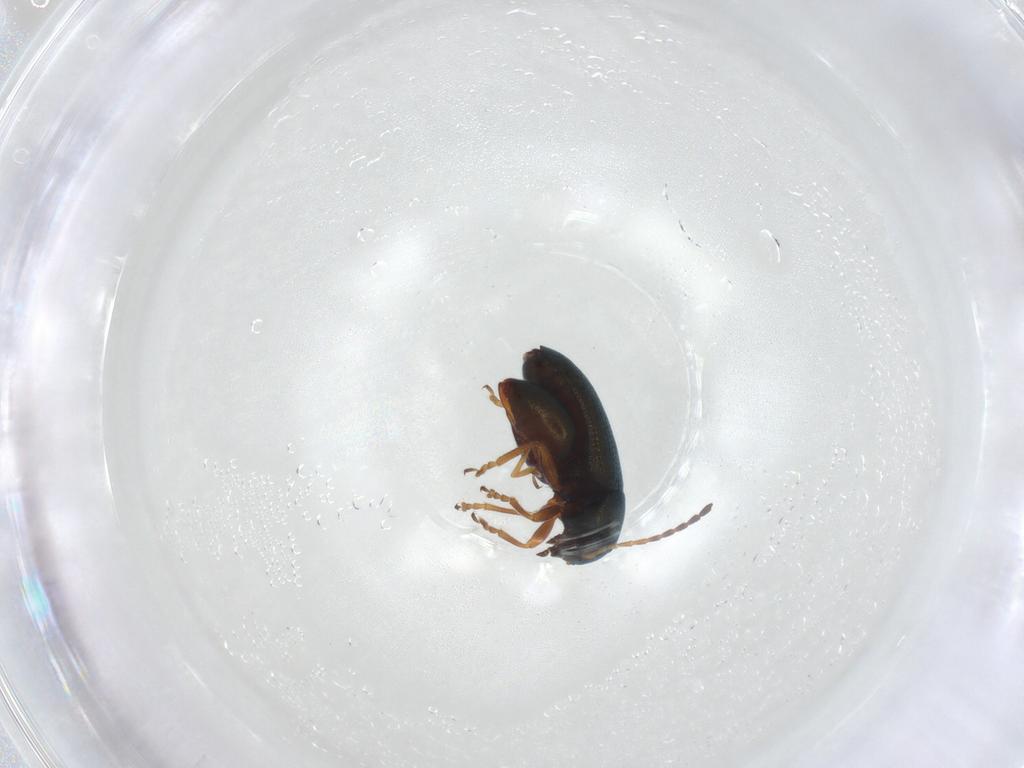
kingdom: Animalia
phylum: Arthropoda
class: Insecta
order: Coleoptera
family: Chrysomelidae
